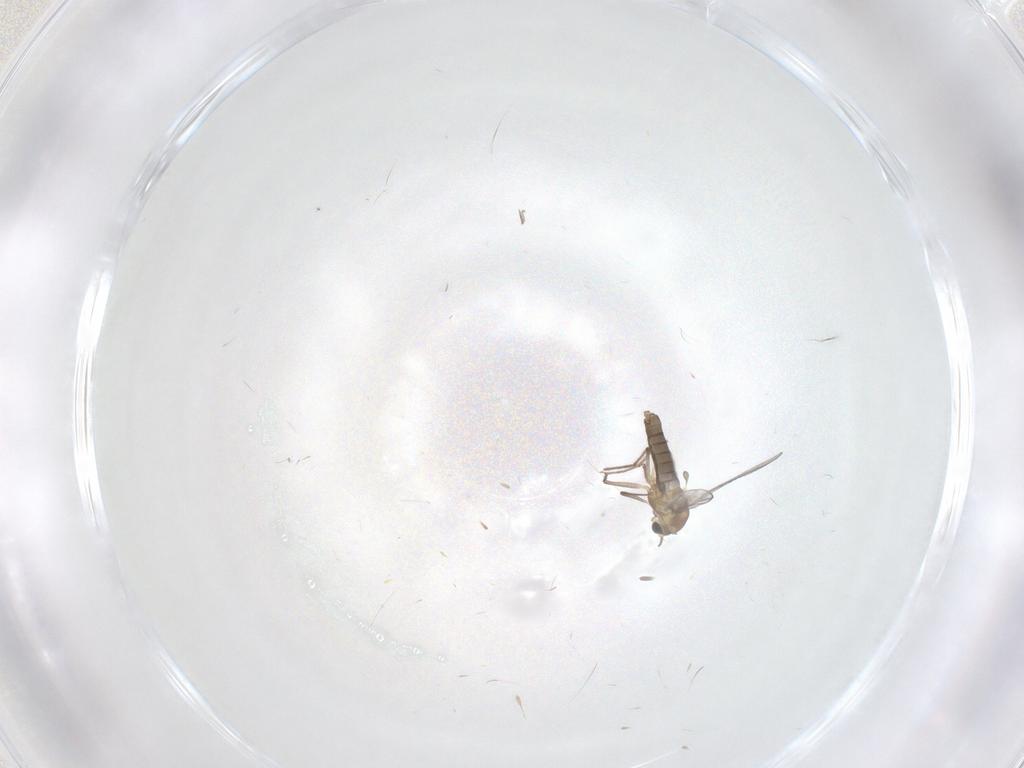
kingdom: Animalia
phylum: Arthropoda
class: Insecta
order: Diptera
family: Chironomidae
